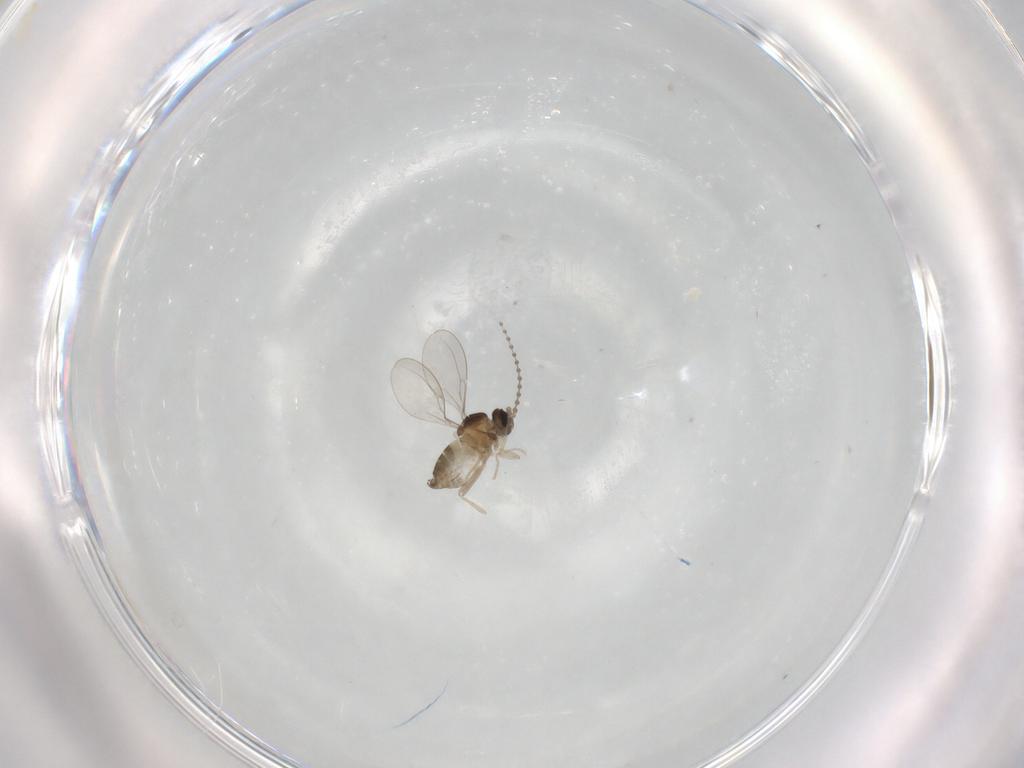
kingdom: Animalia
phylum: Arthropoda
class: Insecta
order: Diptera
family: Cecidomyiidae
